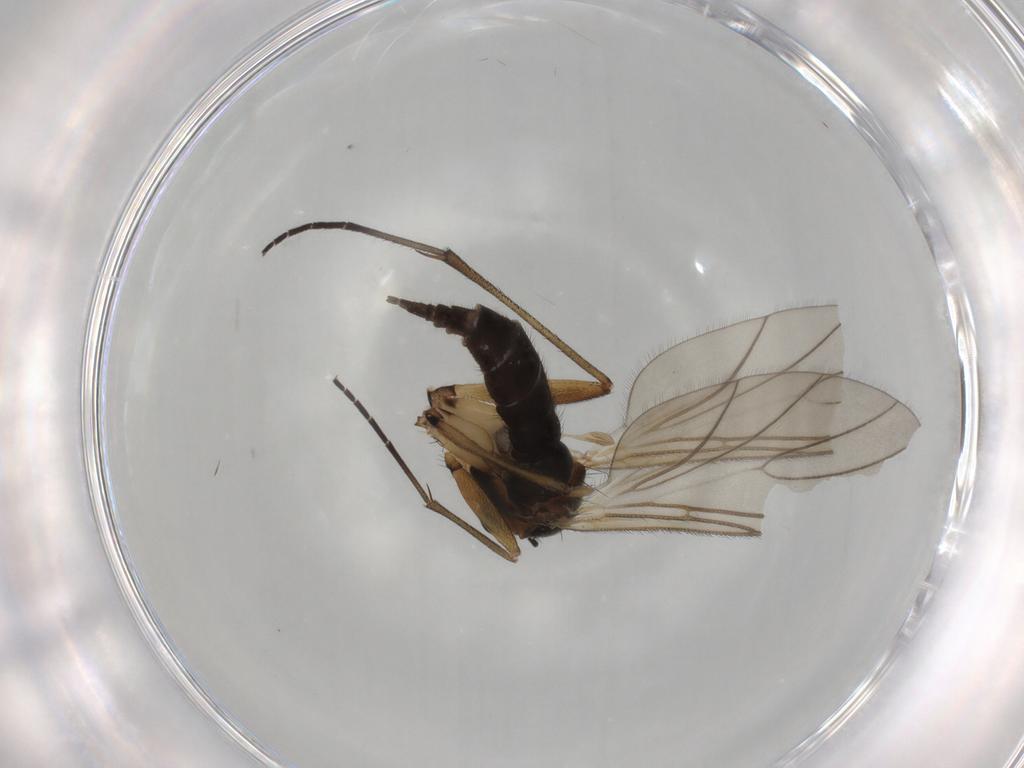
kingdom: Animalia
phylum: Arthropoda
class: Insecta
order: Diptera
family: Sciaridae
